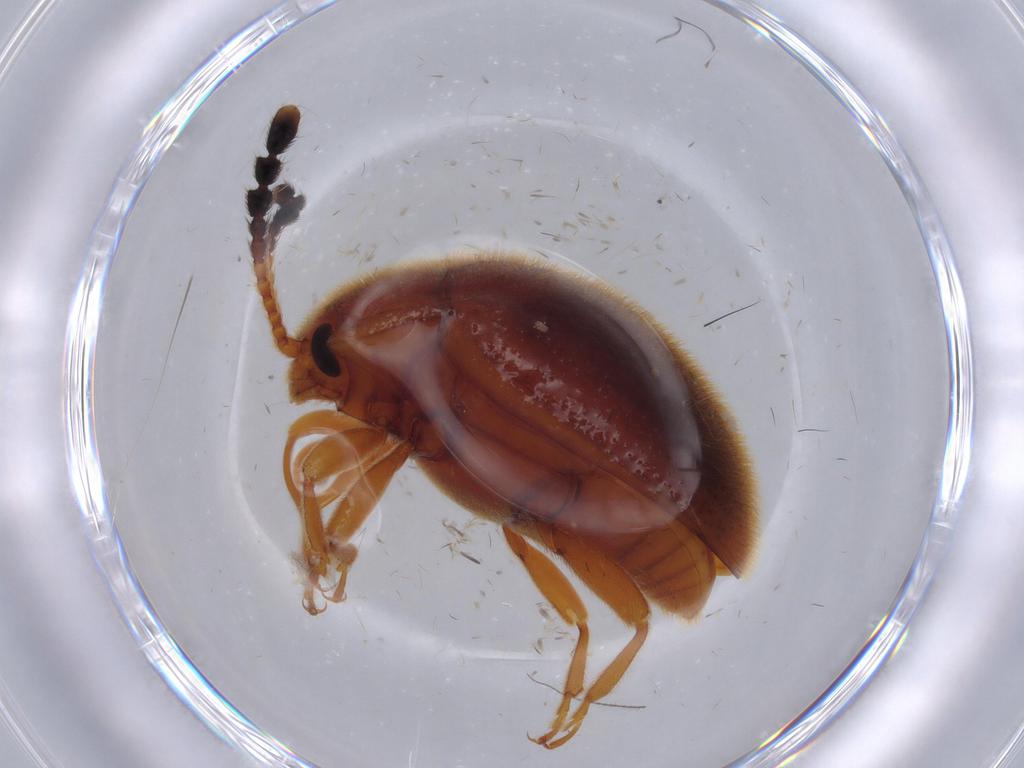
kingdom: Animalia
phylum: Arthropoda
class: Insecta
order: Coleoptera
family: Endomychidae
